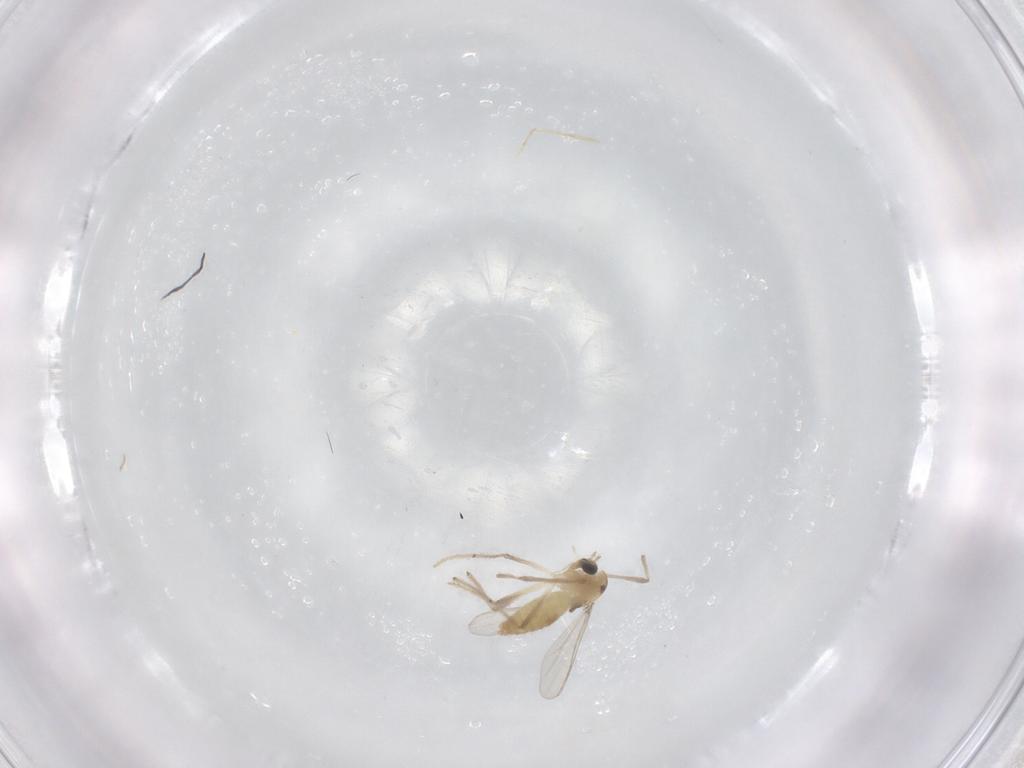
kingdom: Animalia
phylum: Arthropoda
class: Insecta
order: Diptera
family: Chironomidae
